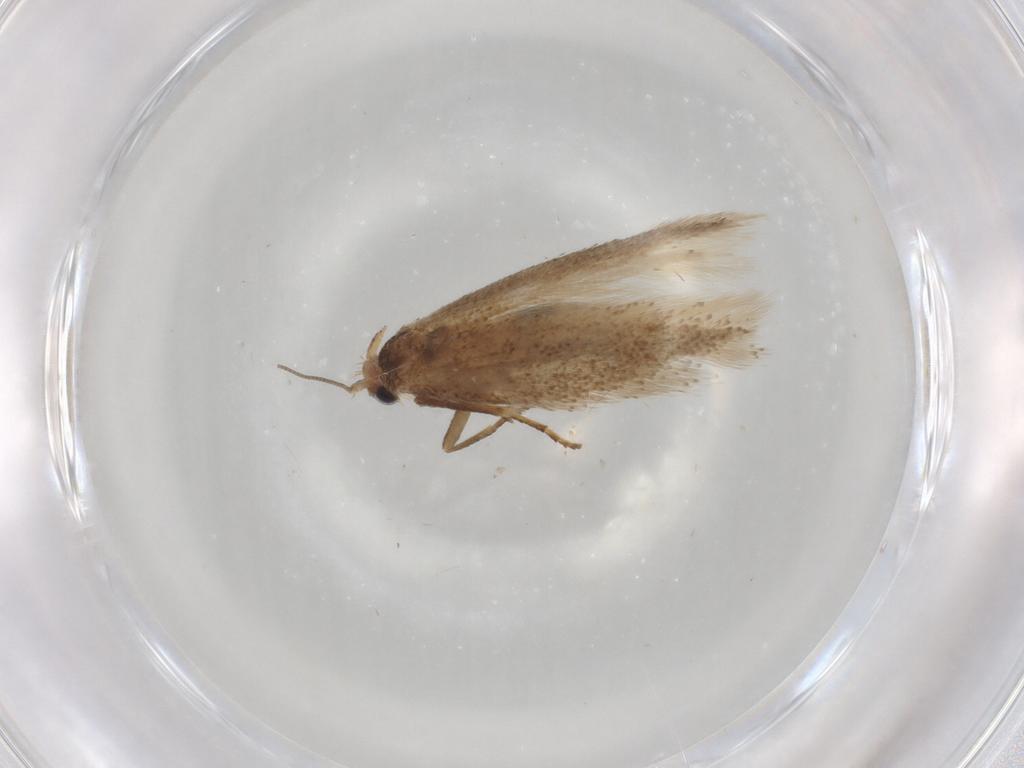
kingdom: Animalia
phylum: Arthropoda
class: Insecta
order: Lepidoptera
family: Bucculatricidae
